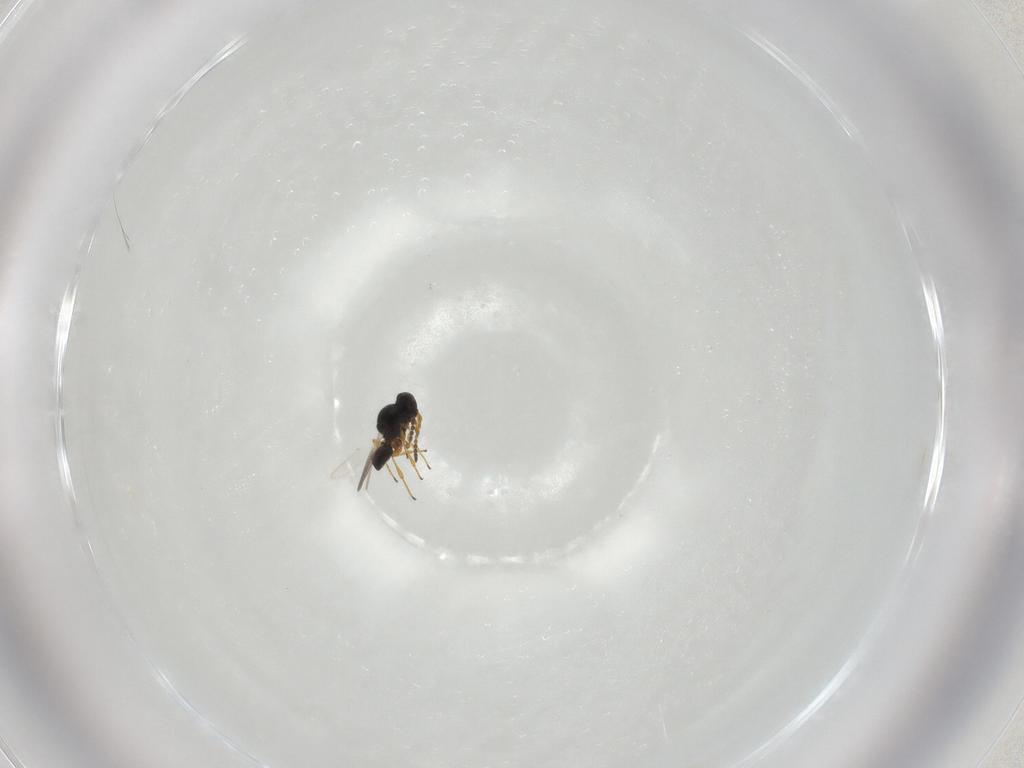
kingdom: Animalia
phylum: Arthropoda
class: Insecta
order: Hymenoptera
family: Platygastridae
